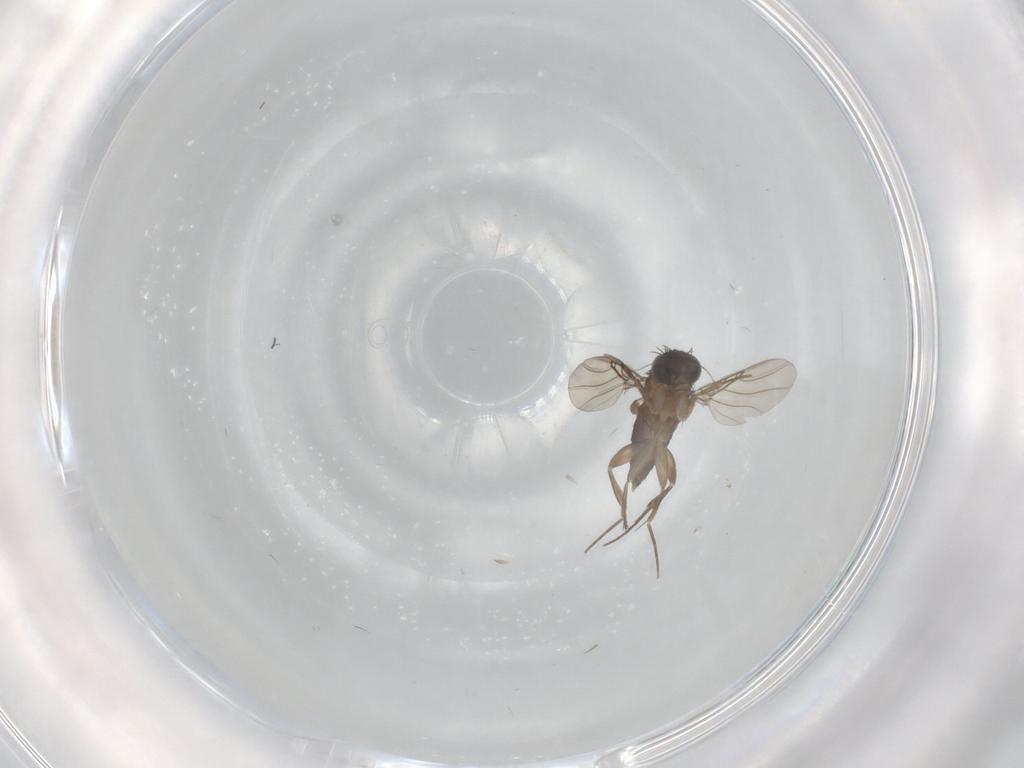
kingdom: Animalia
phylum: Arthropoda
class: Insecta
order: Diptera
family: Phoridae
